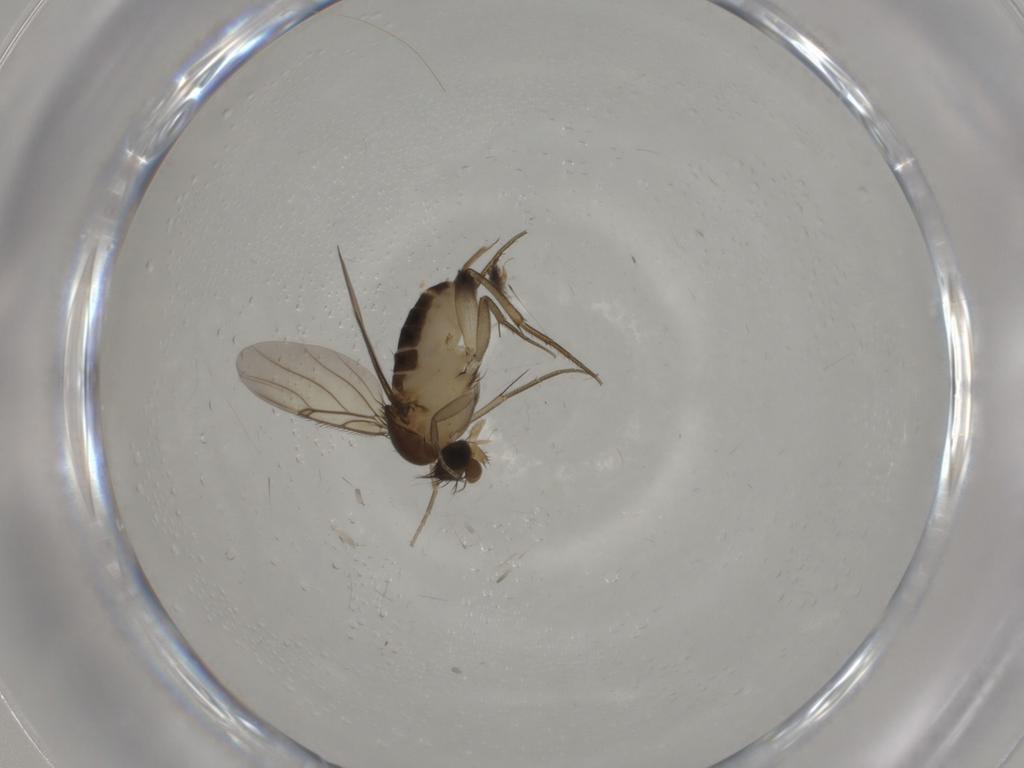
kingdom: Animalia
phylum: Arthropoda
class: Insecta
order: Diptera
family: Phoridae
